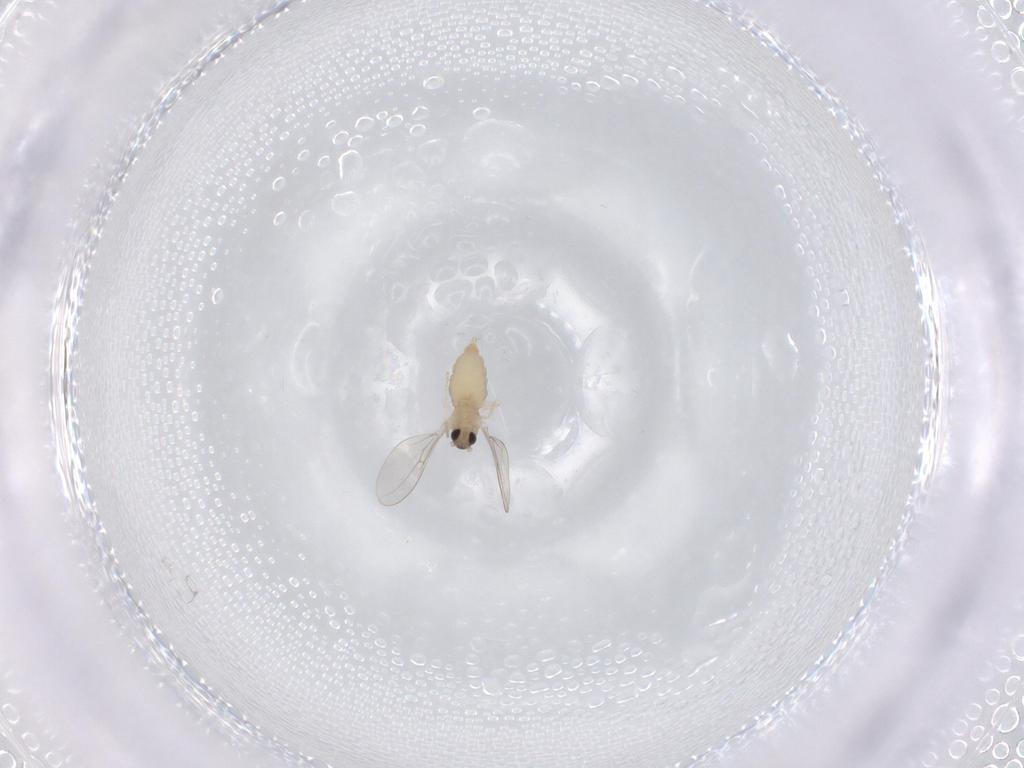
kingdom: Animalia
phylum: Arthropoda
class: Insecta
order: Diptera
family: Cecidomyiidae
